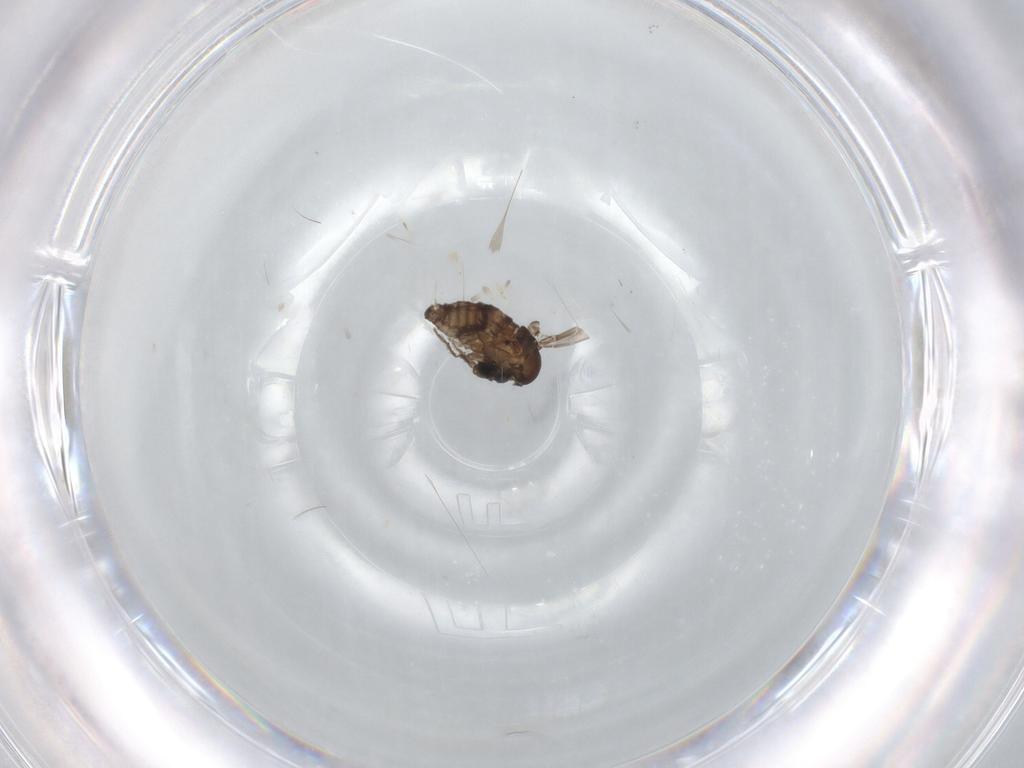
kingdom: Animalia
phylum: Arthropoda
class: Insecta
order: Diptera
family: Psychodidae
